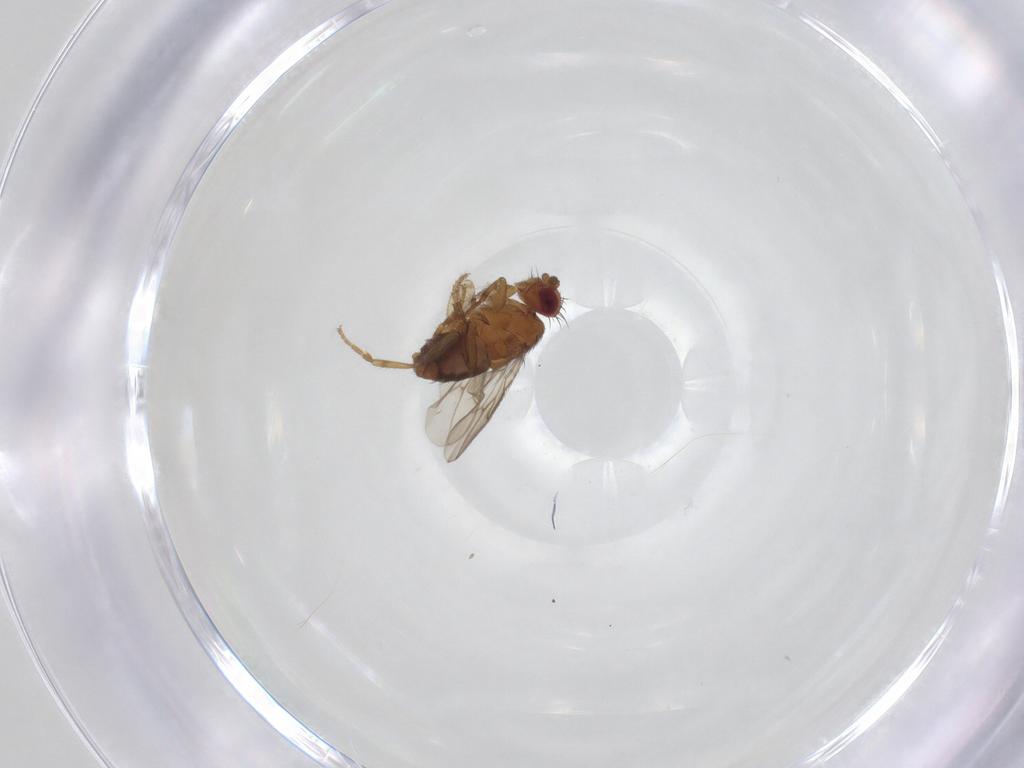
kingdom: Animalia
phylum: Arthropoda
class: Insecta
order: Diptera
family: Sphaeroceridae
